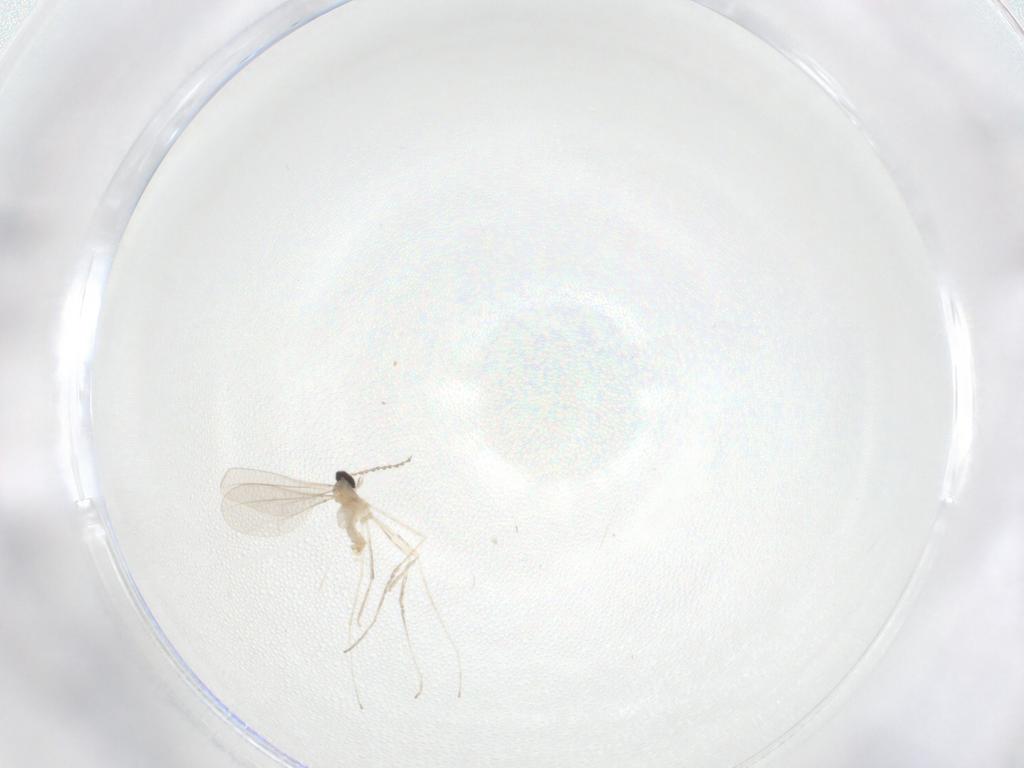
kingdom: Animalia
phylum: Arthropoda
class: Insecta
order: Diptera
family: Cecidomyiidae
